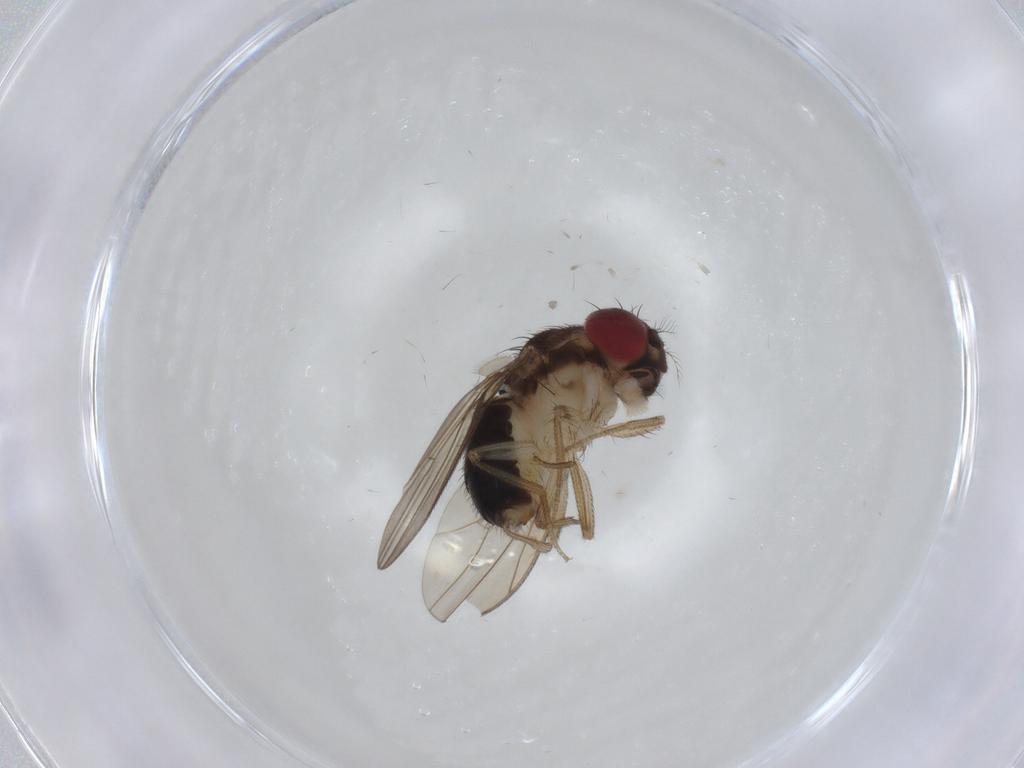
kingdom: Animalia
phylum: Arthropoda
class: Insecta
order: Diptera
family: Drosophilidae
